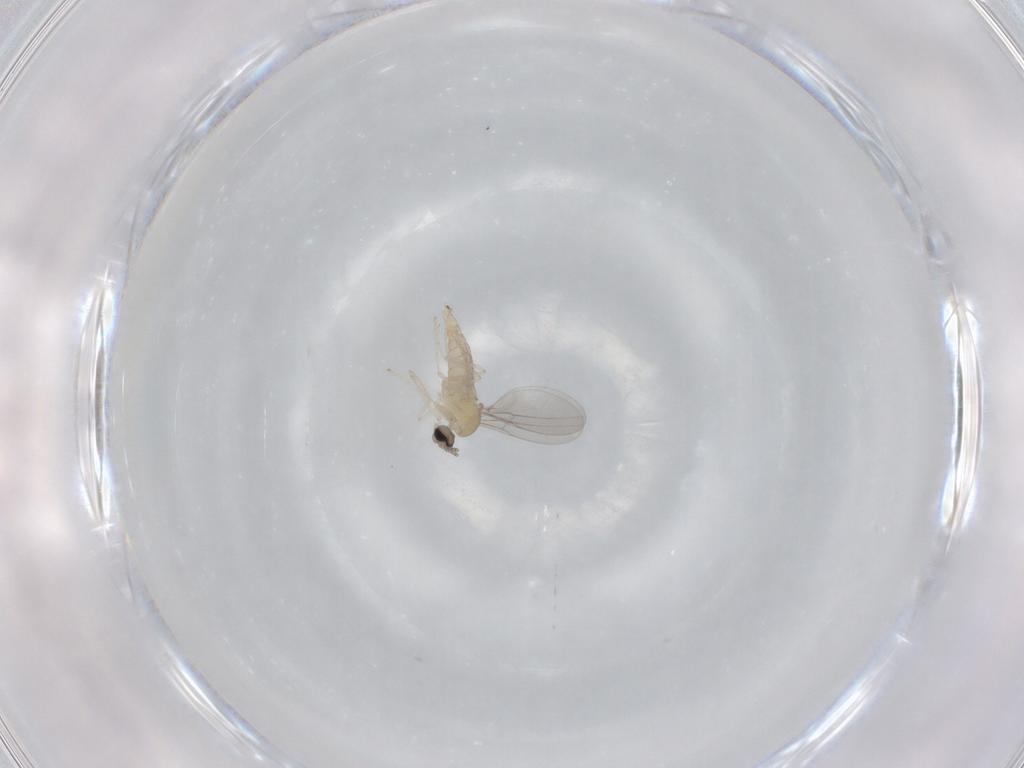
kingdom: Animalia
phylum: Arthropoda
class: Insecta
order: Diptera
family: Cecidomyiidae
